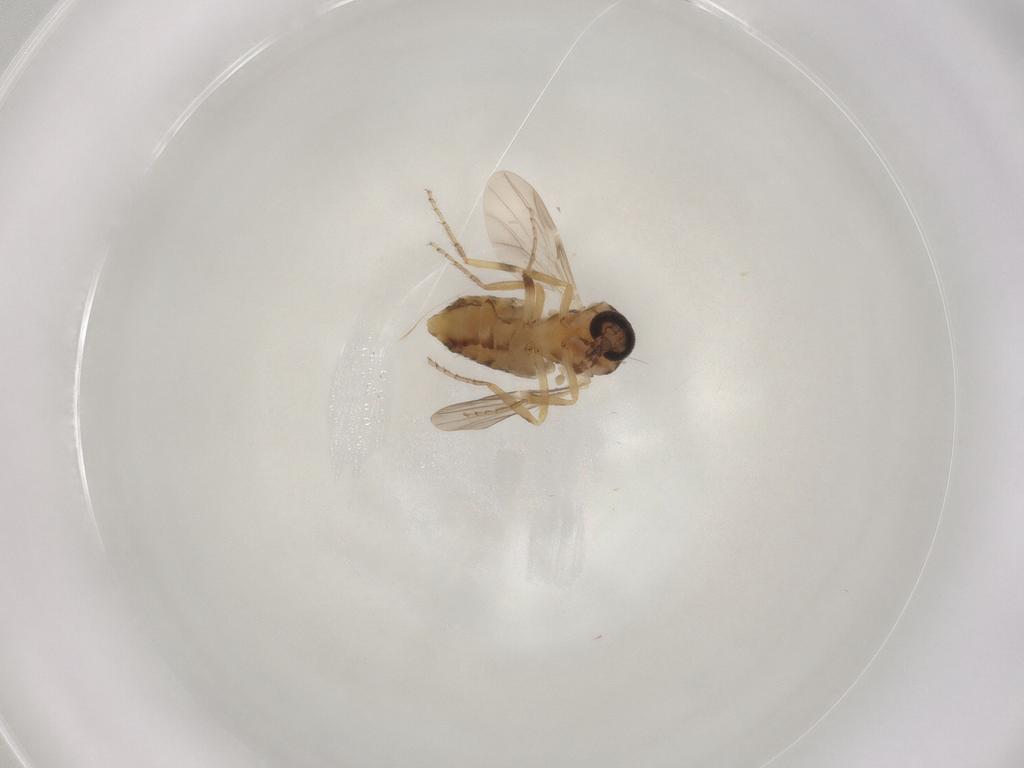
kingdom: Animalia
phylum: Arthropoda
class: Insecta
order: Diptera
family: Ceratopogonidae
